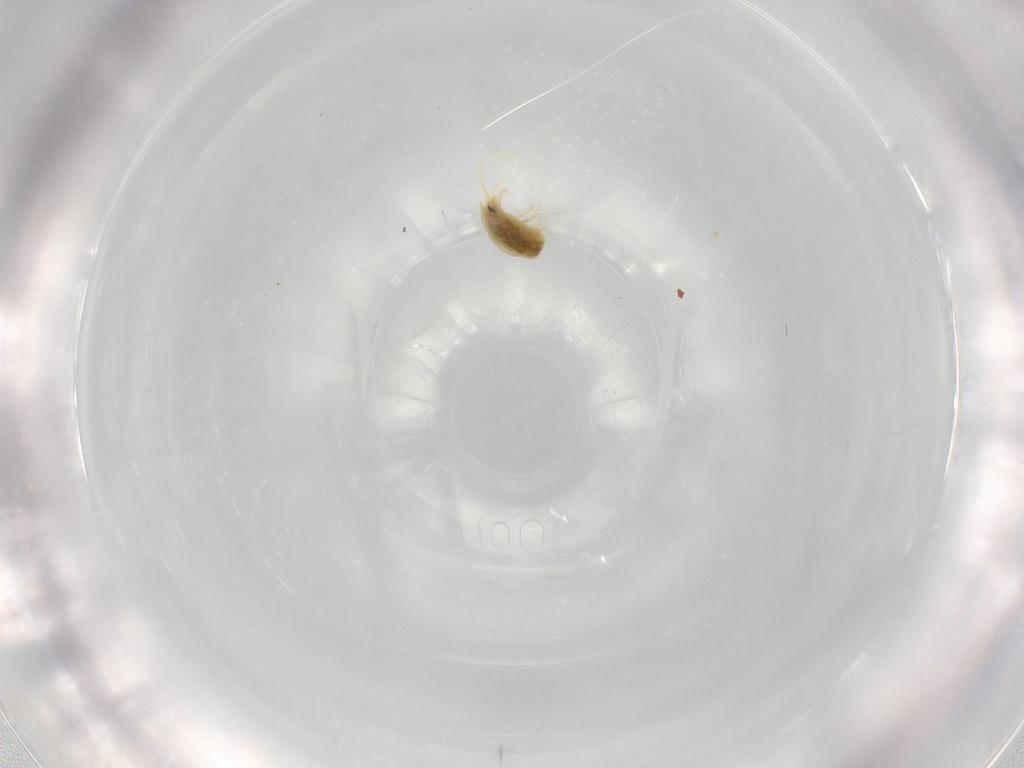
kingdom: Animalia
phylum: Arthropoda
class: Arachnida
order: Trombidiformes
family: Tetranychidae
